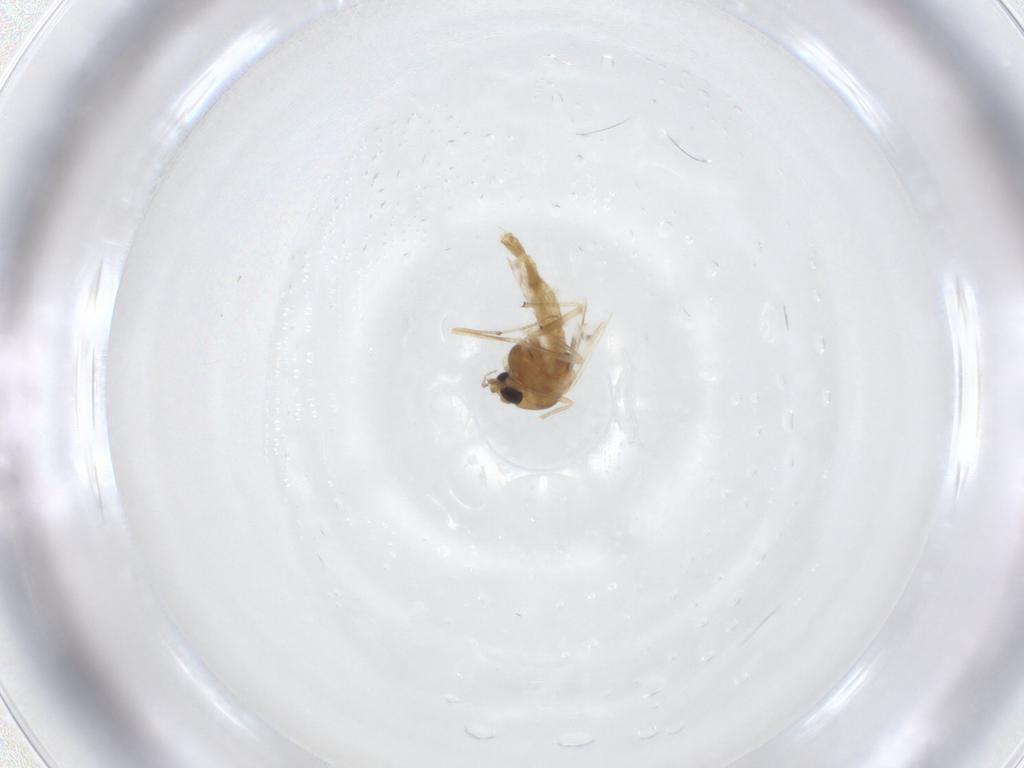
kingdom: Animalia
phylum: Arthropoda
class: Insecta
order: Diptera
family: Chironomidae
